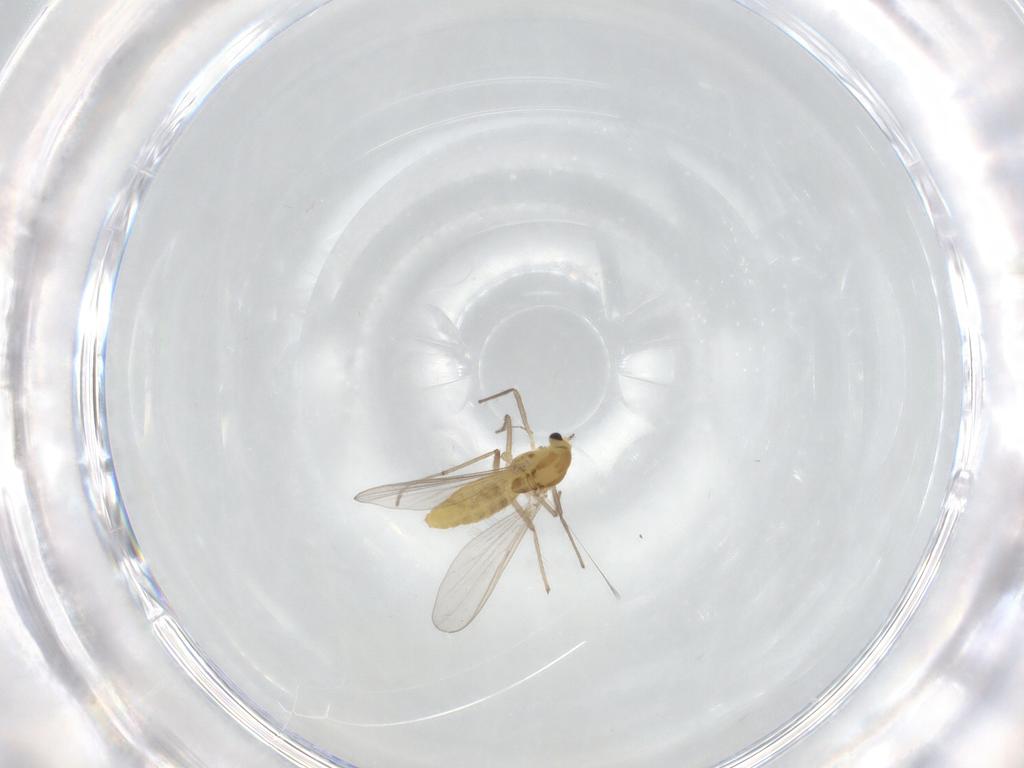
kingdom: Animalia
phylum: Arthropoda
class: Insecta
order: Diptera
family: Chironomidae
